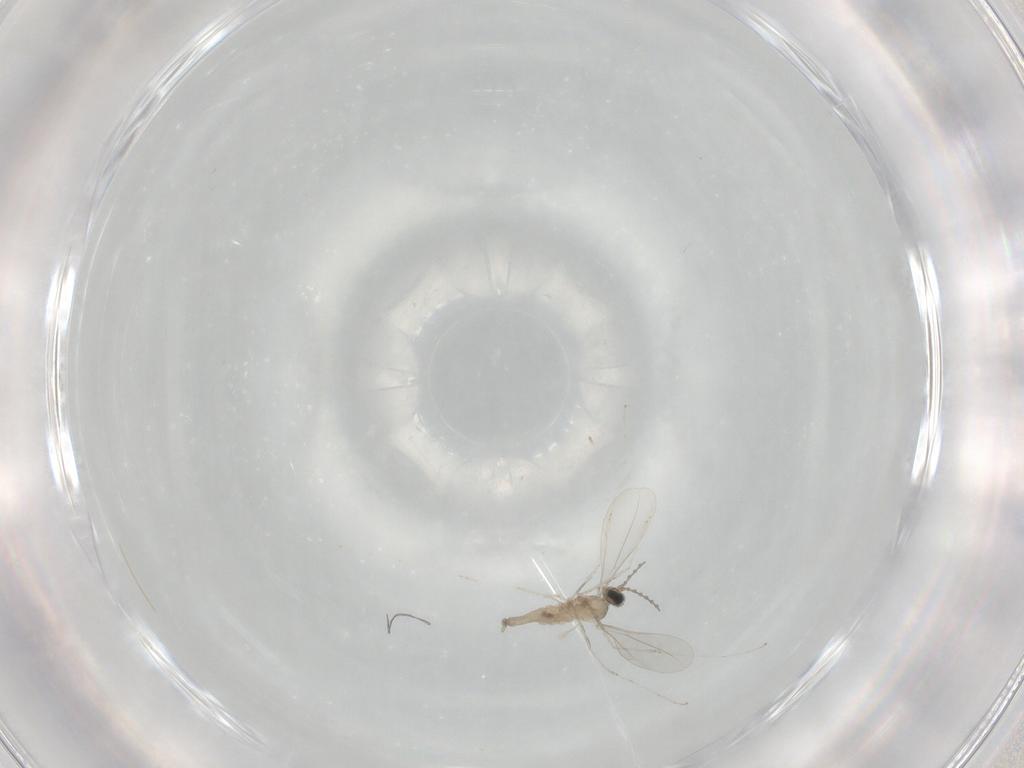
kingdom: Animalia
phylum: Arthropoda
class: Insecta
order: Diptera
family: Cecidomyiidae
